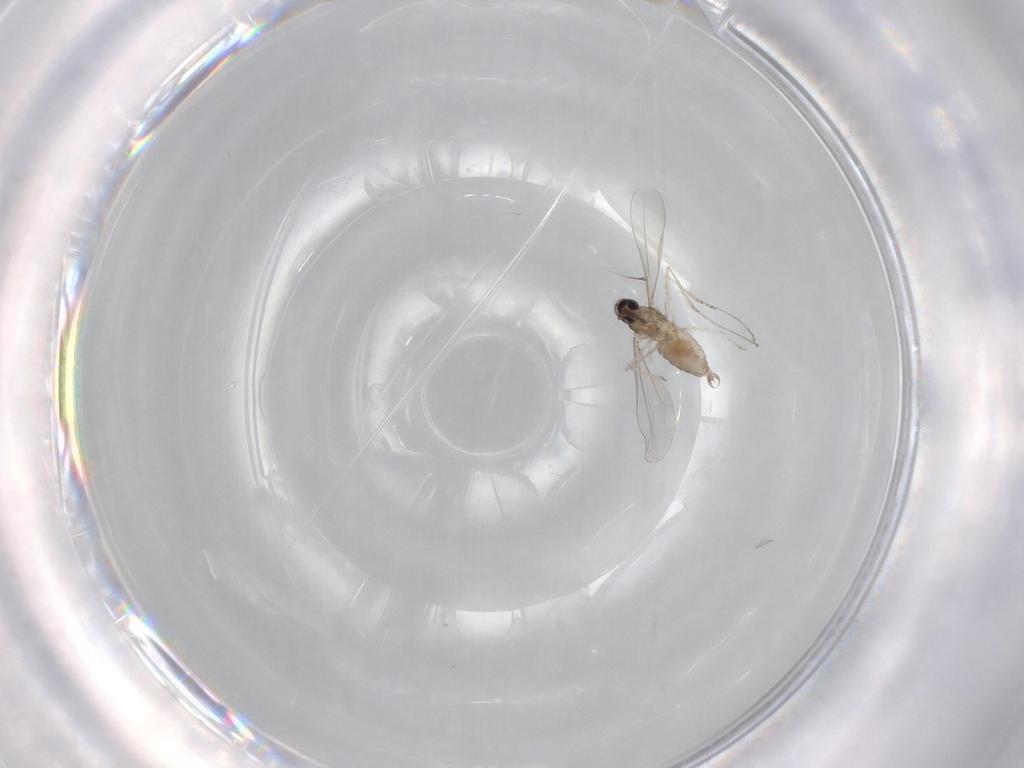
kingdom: Animalia
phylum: Arthropoda
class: Insecta
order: Diptera
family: Cecidomyiidae
